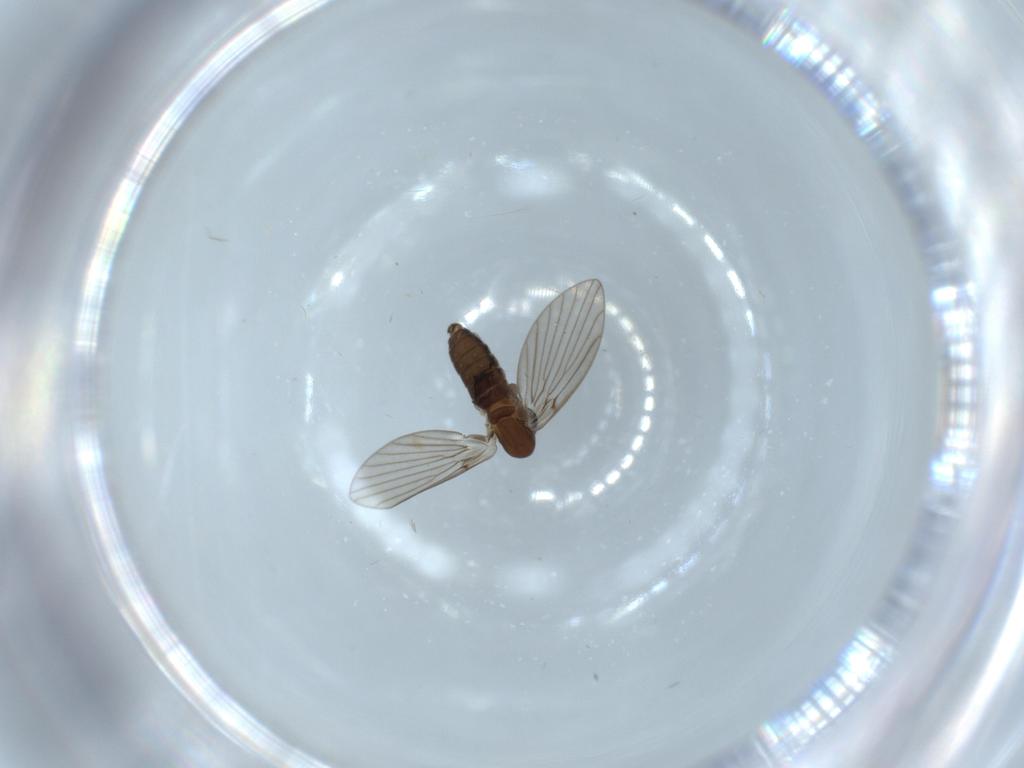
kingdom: Animalia
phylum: Arthropoda
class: Insecta
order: Diptera
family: Psychodidae
